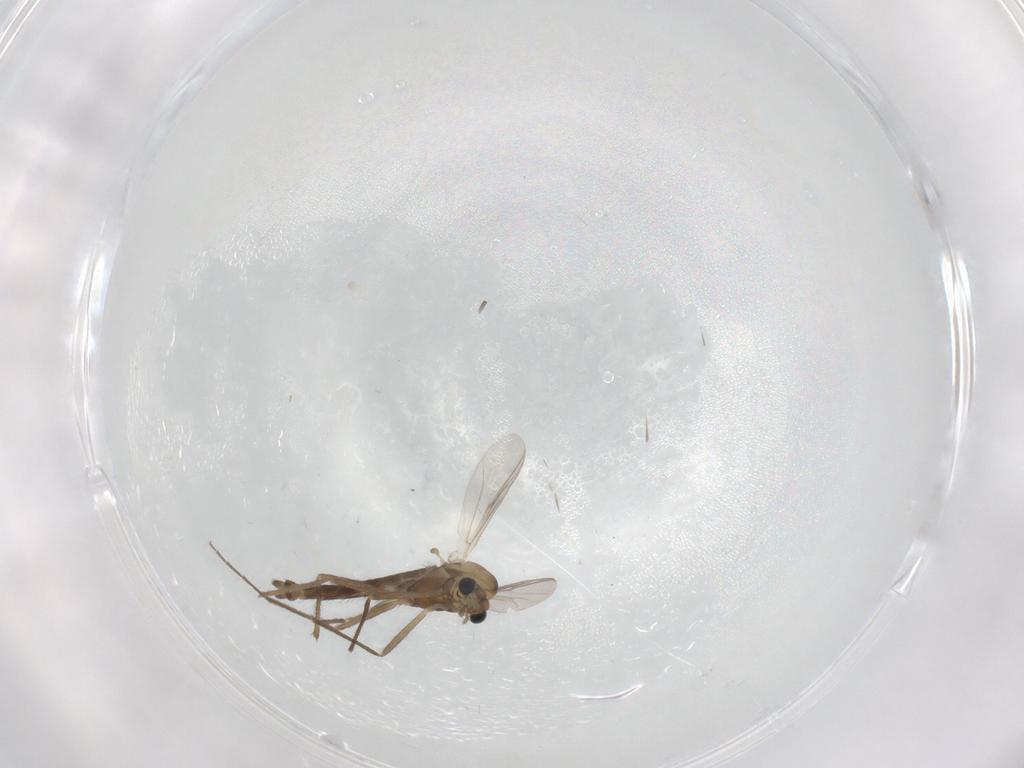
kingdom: Animalia
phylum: Arthropoda
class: Insecta
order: Diptera
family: Chironomidae
